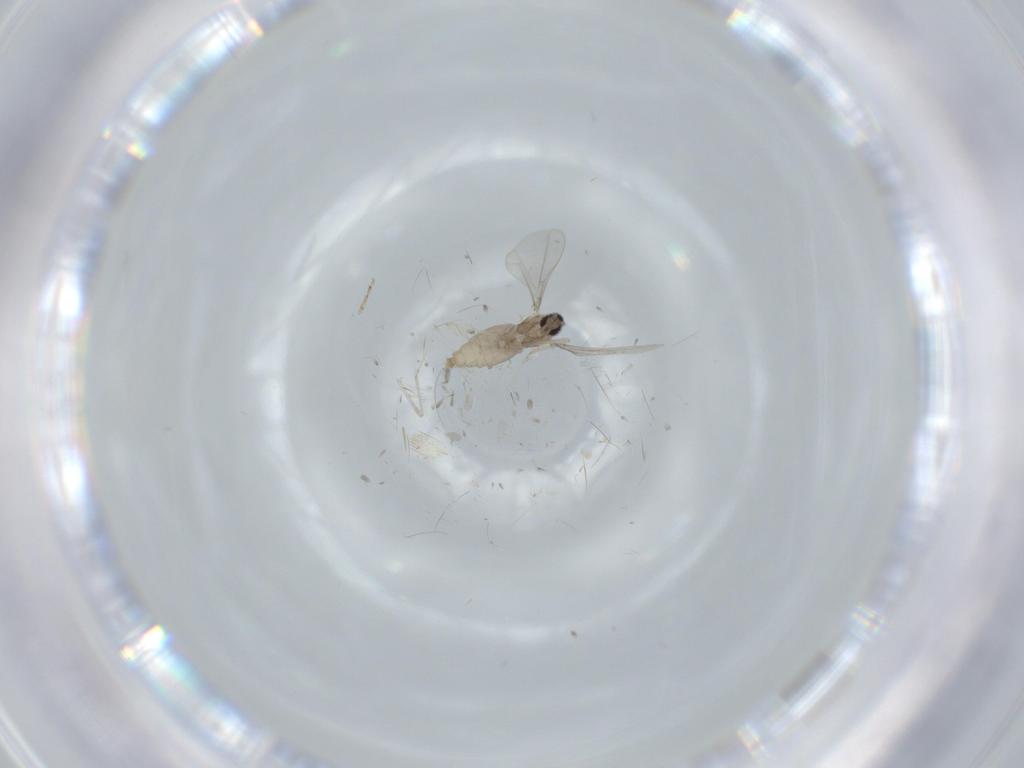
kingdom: Animalia
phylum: Arthropoda
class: Insecta
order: Diptera
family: Cecidomyiidae
